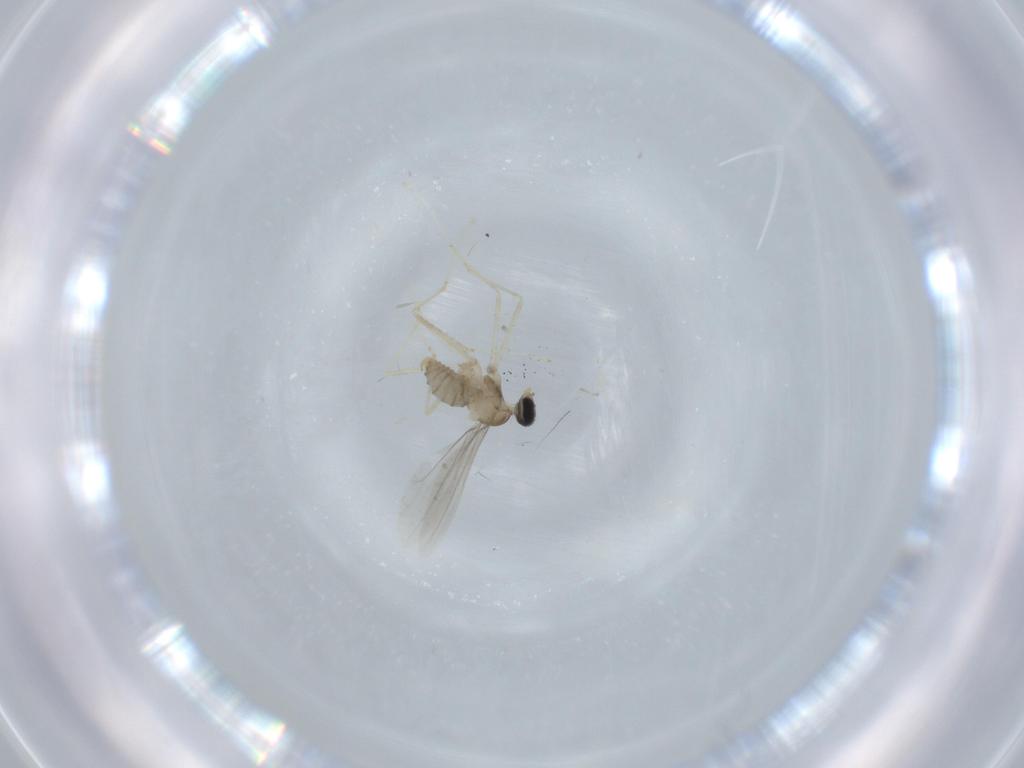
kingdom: Animalia
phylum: Arthropoda
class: Insecta
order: Diptera
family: Cecidomyiidae
